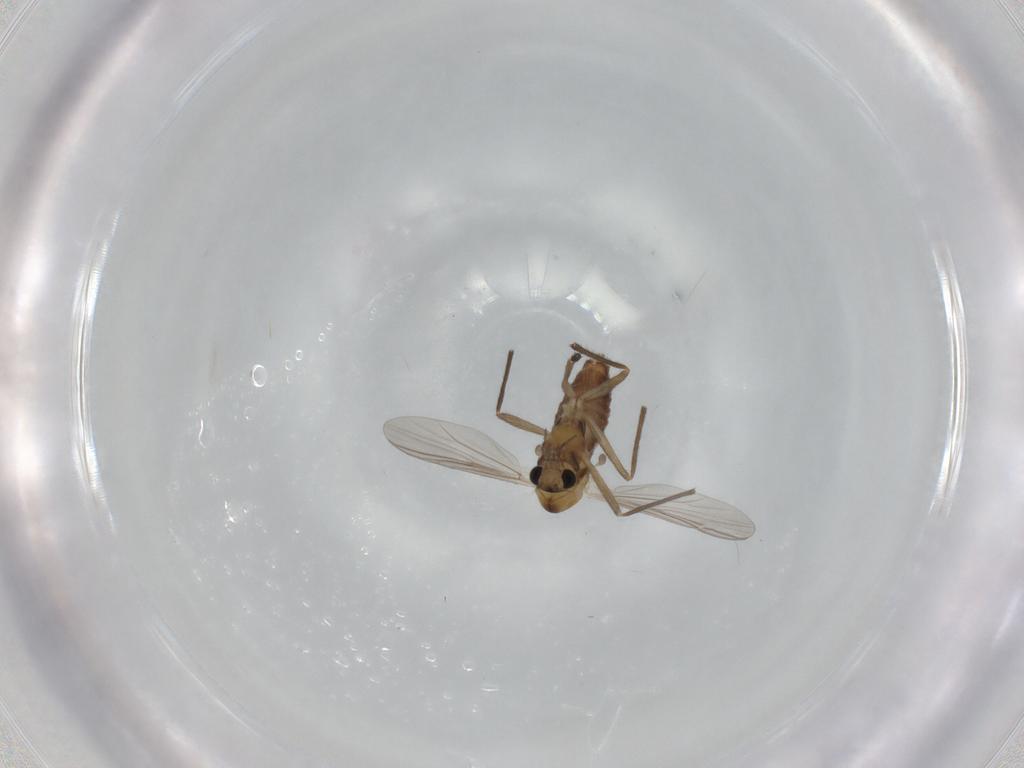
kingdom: Animalia
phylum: Arthropoda
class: Insecta
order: Diptera
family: Chironomidae
